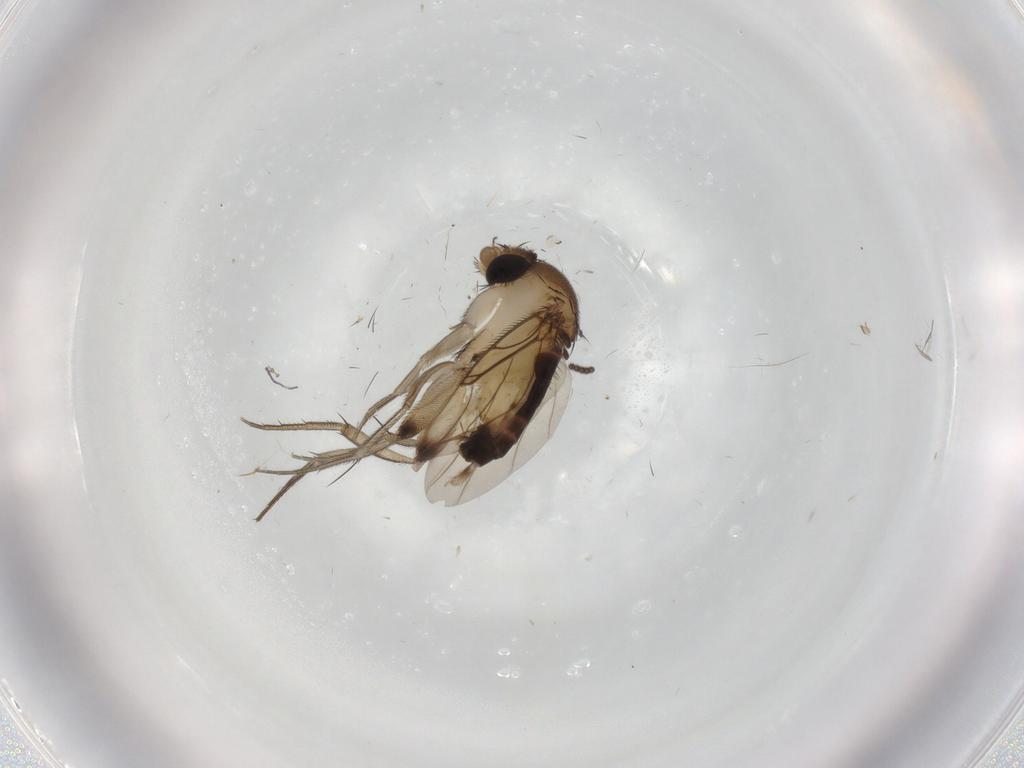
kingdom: Animalia
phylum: Arthropoda
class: Insecta
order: Diptera
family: Phoridae
